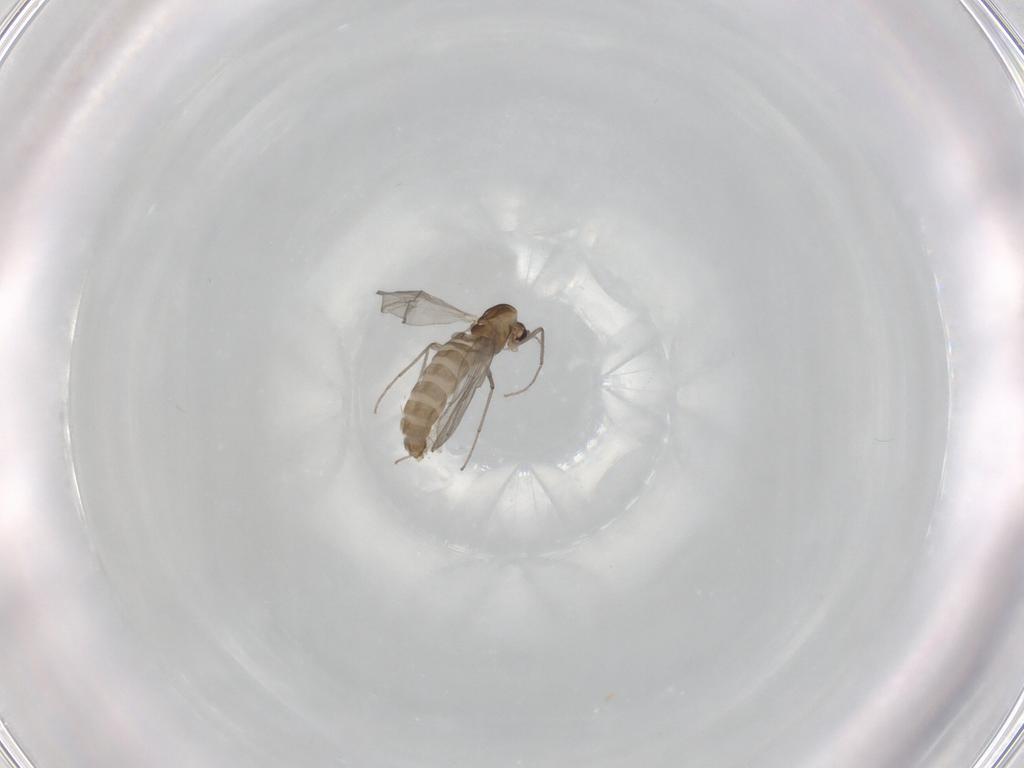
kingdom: Animalia
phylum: Arthropoda
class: Insecta
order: Diptera
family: Chironomidae
